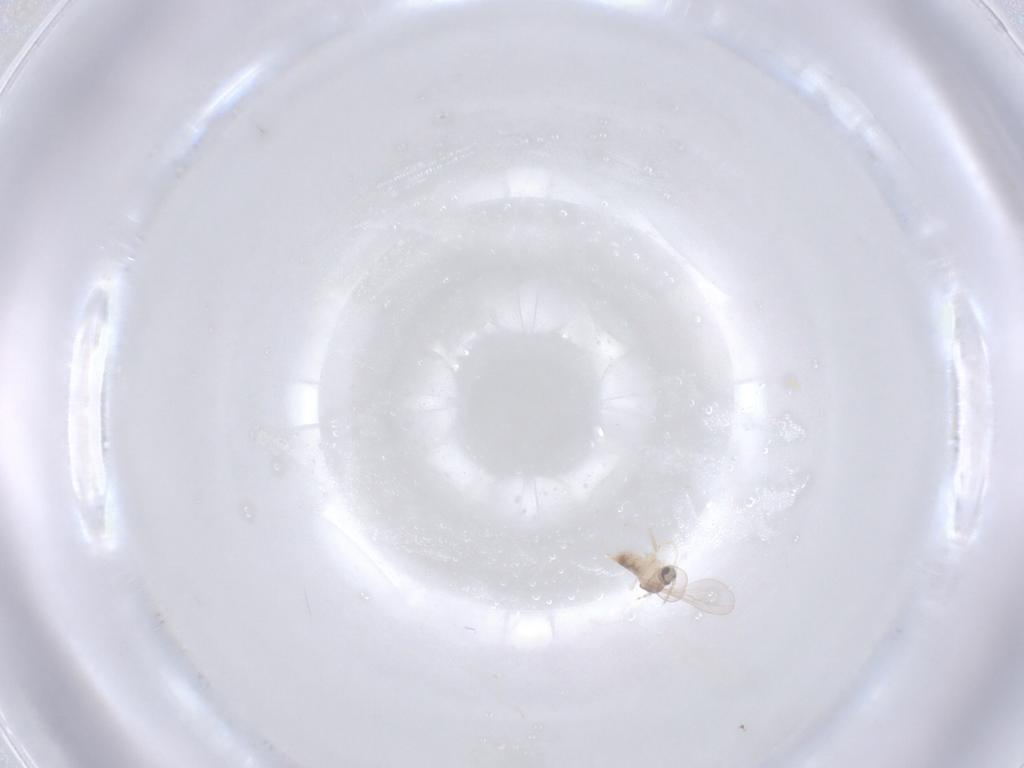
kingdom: Animalia
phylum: Arthropoda
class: Insecta
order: Diptera
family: Cecidomyiidae
